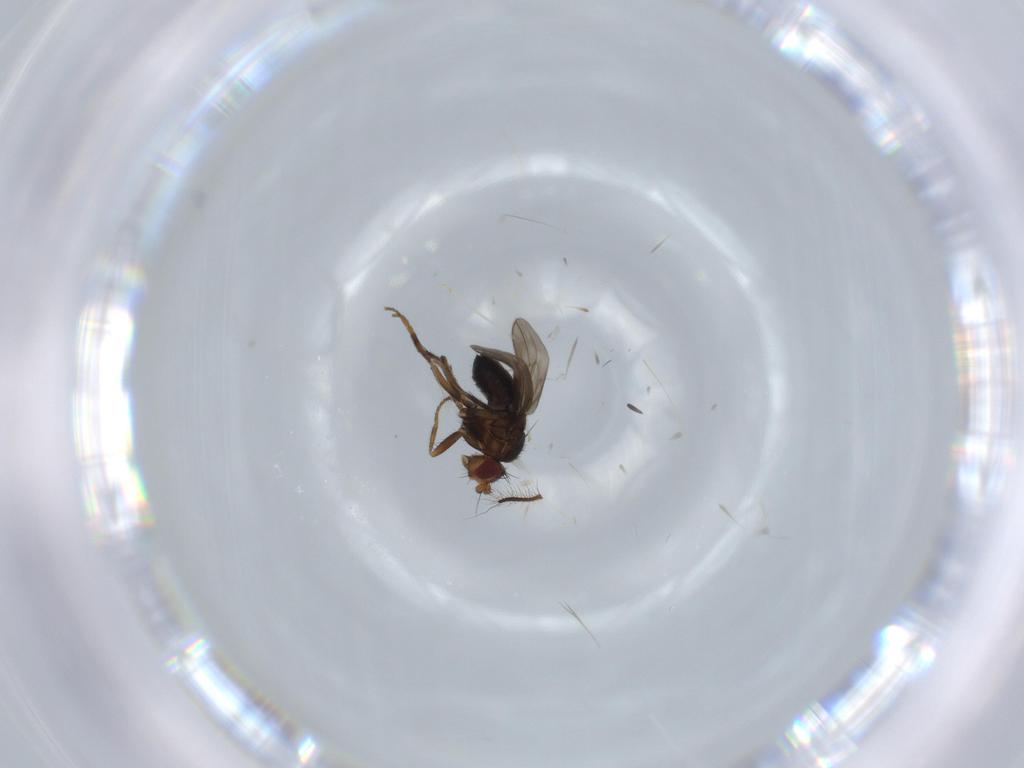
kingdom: Animalia
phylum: Arthropoda
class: Insecta
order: Diptera
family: Sphaeroceridae
